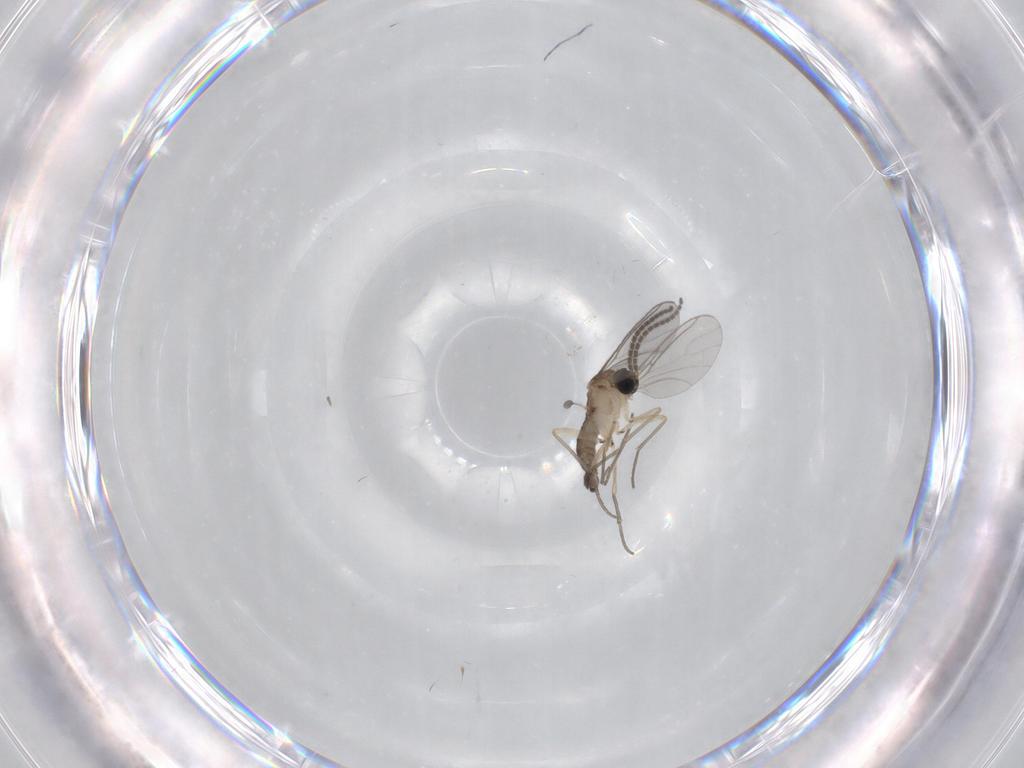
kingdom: Animalia
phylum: Arthropoda
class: Insecta
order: Diptera
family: Sciaridae
